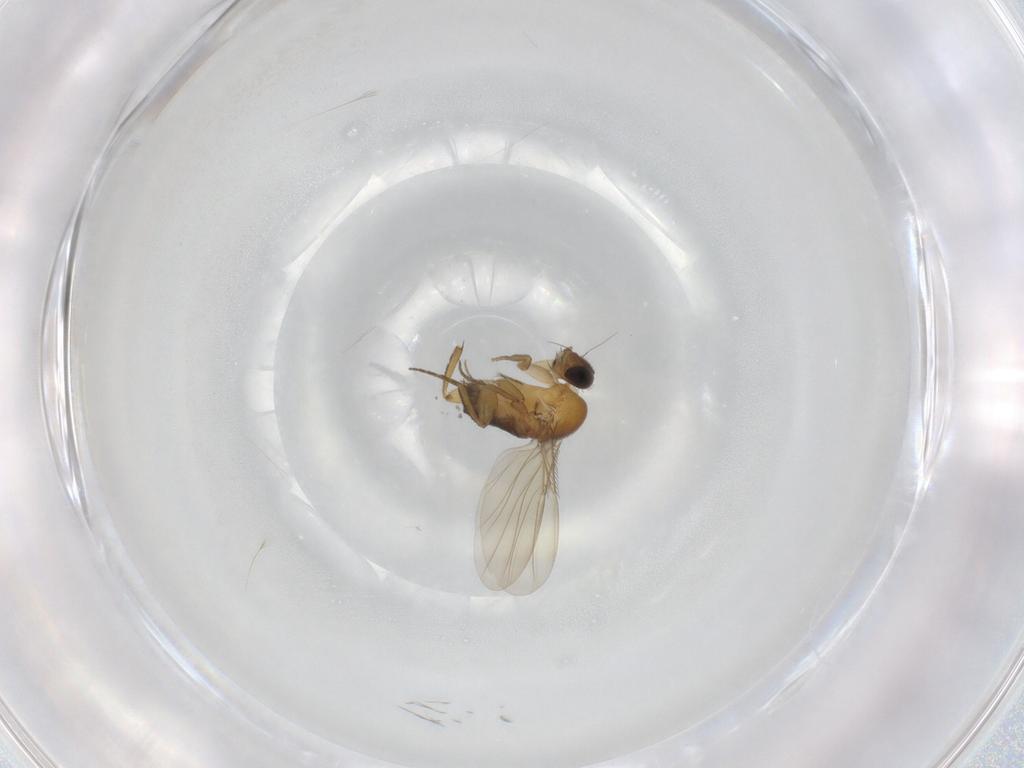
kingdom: Animalia
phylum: Arthropoda
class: Insecta
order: Diptera
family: Phoridae
